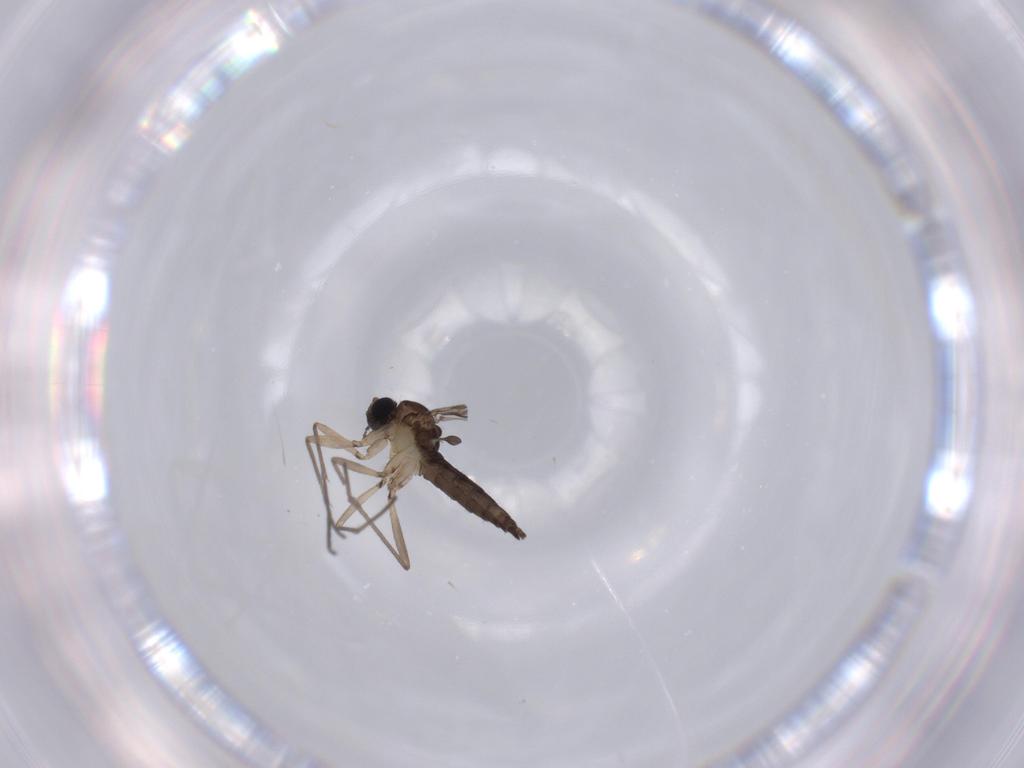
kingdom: Animalia
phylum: Arthropoda
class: Insecta
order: Diptera
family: Sciaridae
